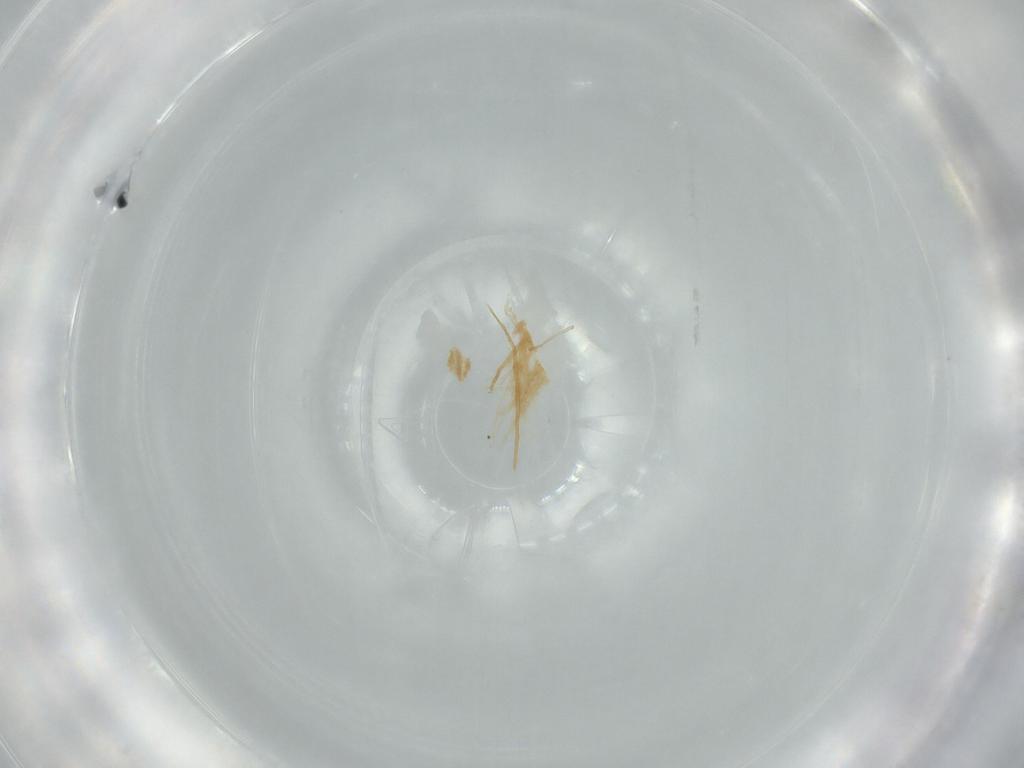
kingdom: Animalia
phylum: Arthropoda
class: Insecta
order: Diptera
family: Cecidomyiidae
